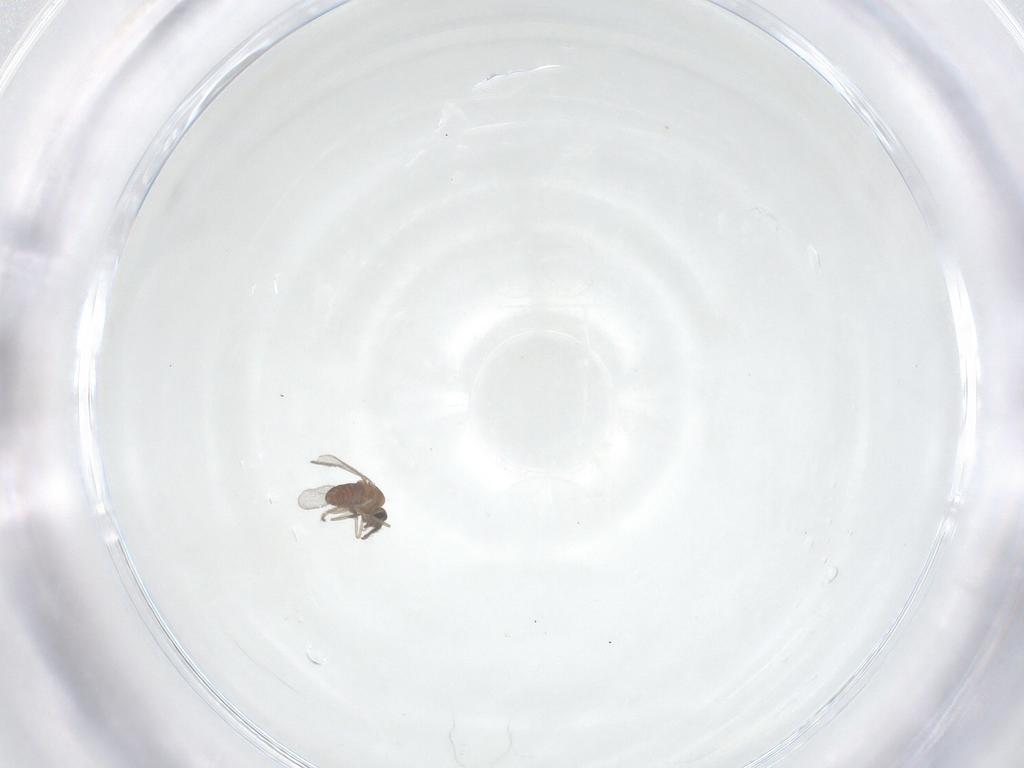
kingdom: Animalia
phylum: Arthropoda
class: Insecta
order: Diptera
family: Ceratopogonidae
